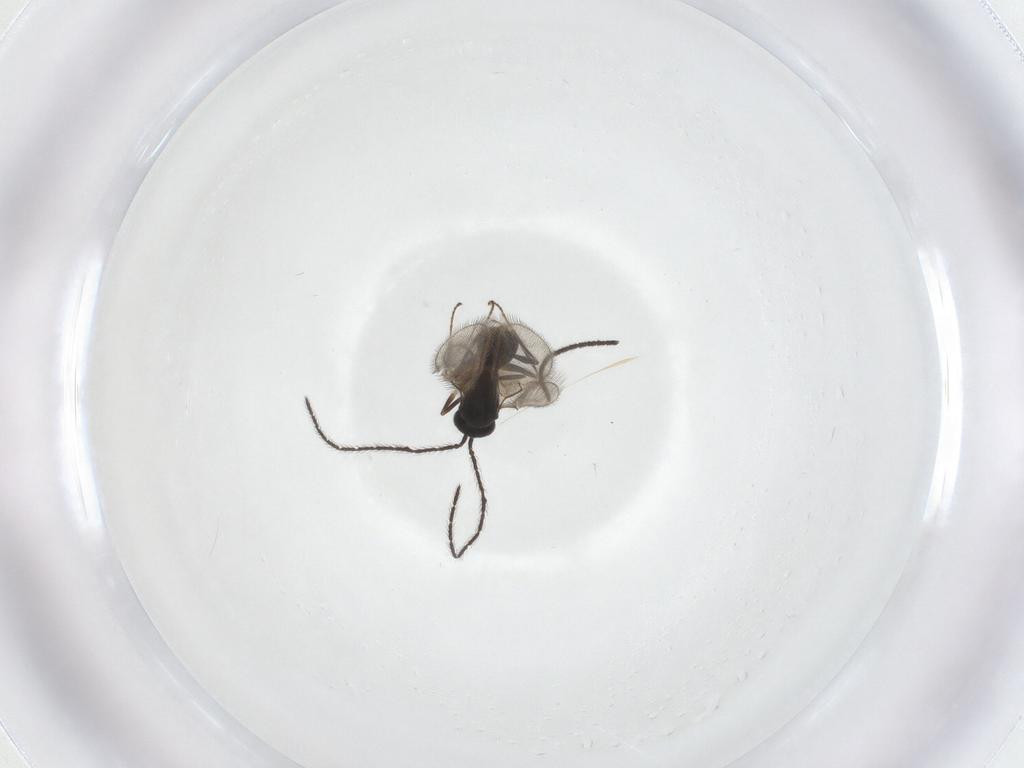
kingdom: Animalia
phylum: Arthropoda
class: Insecta
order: Hymenoptera
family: Scelionidae
